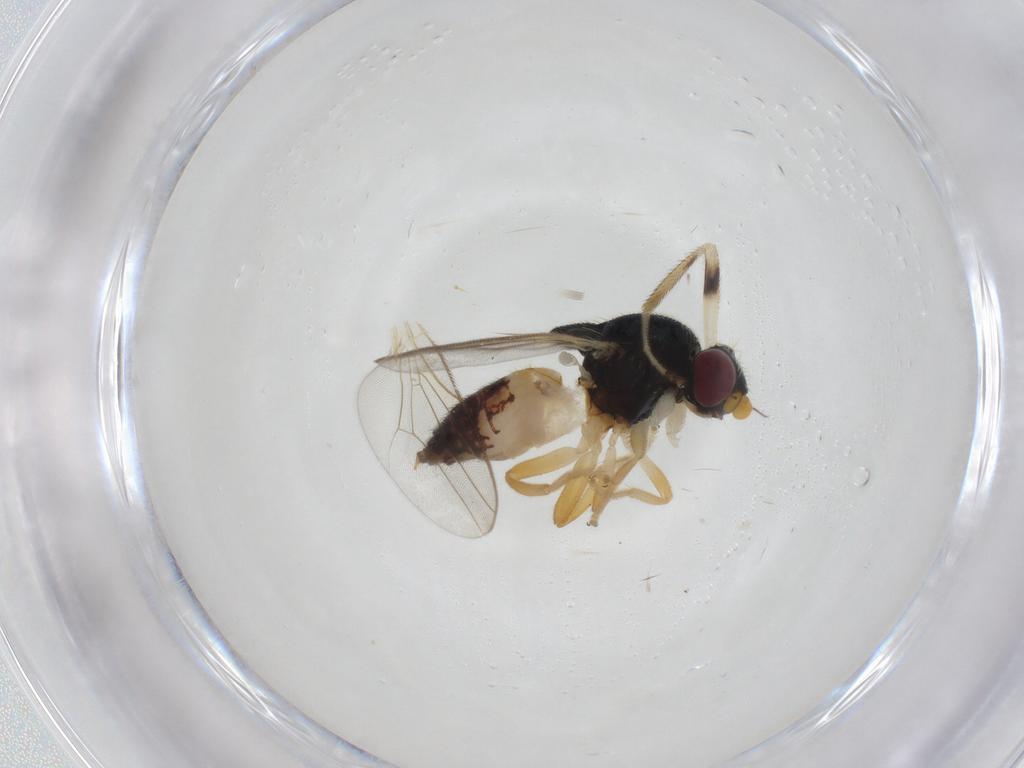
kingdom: Animalia
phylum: Arthropoda
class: Insecta
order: Diptera
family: Chloropidae
